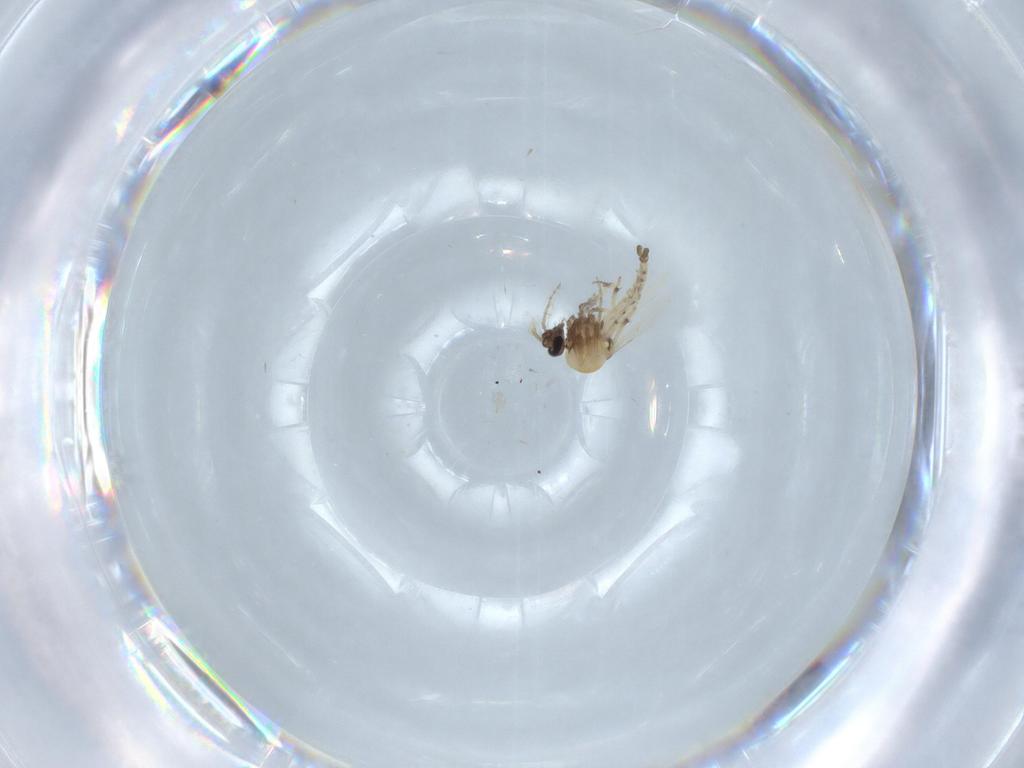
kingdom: Animalia
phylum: Arthropoda
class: Insecta
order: Diptera
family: Ceratopogonidae
